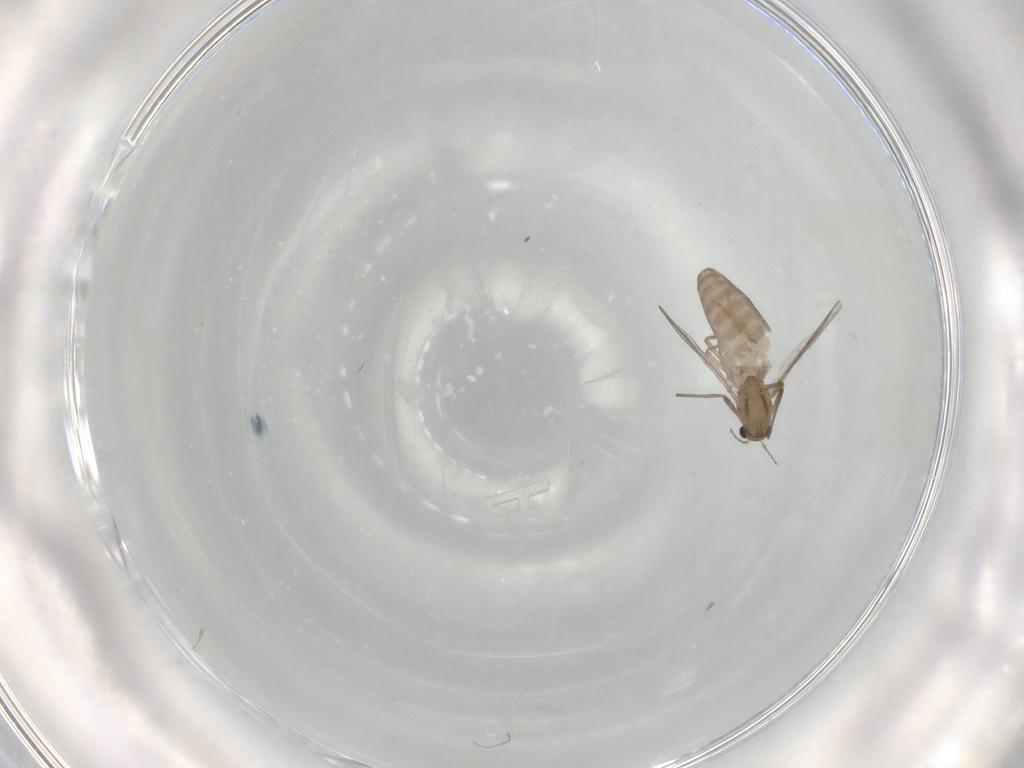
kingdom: Animalia
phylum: Arthropoda
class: Insecta
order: Diptera
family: Chironomidae
